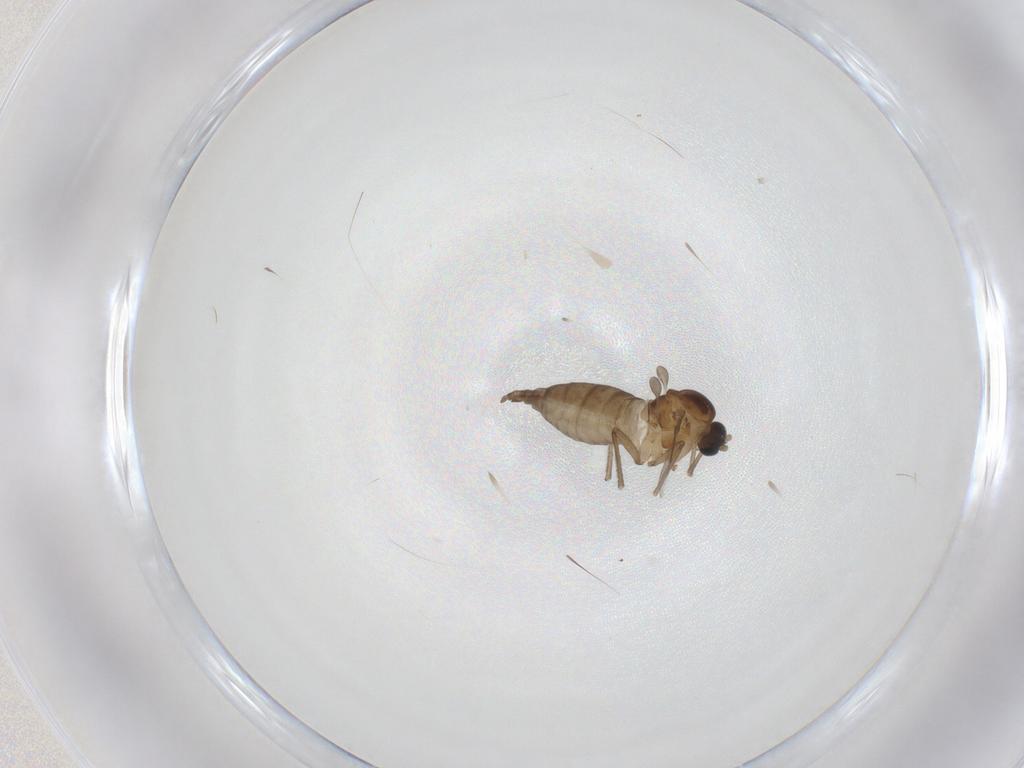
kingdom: Animalia
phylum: Arthropoda
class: Insecta
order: Diptera
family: Sciaridae
